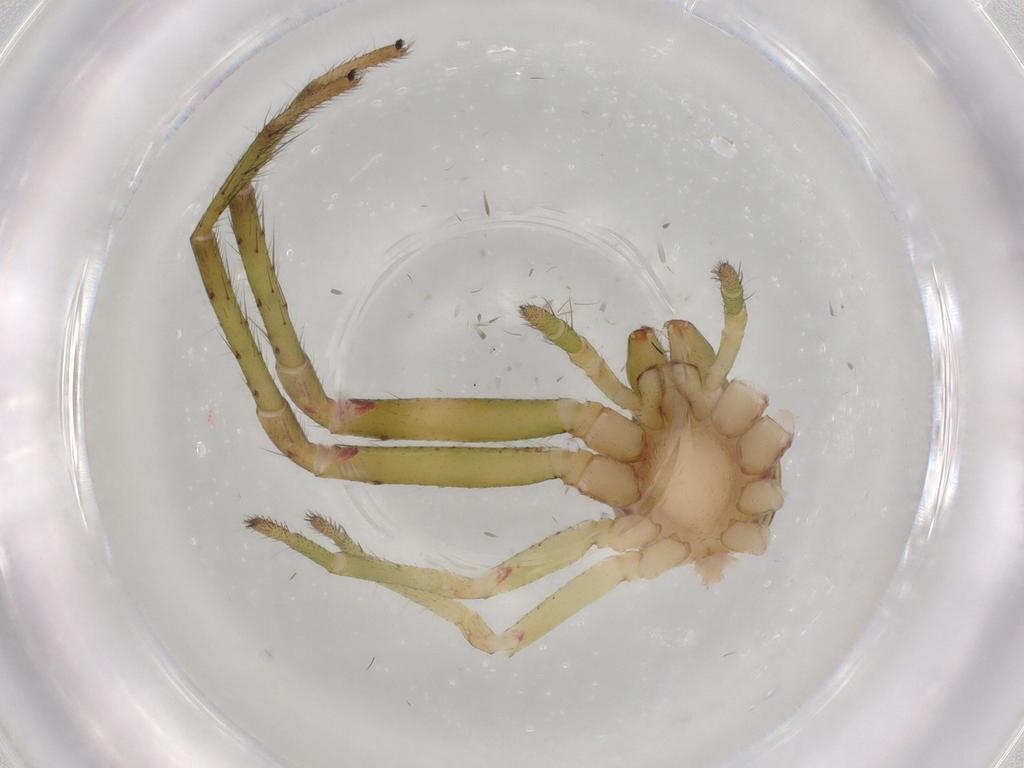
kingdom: Animalia
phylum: Arthropoda
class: Arachnida
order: Araneae
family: Thomisidae
